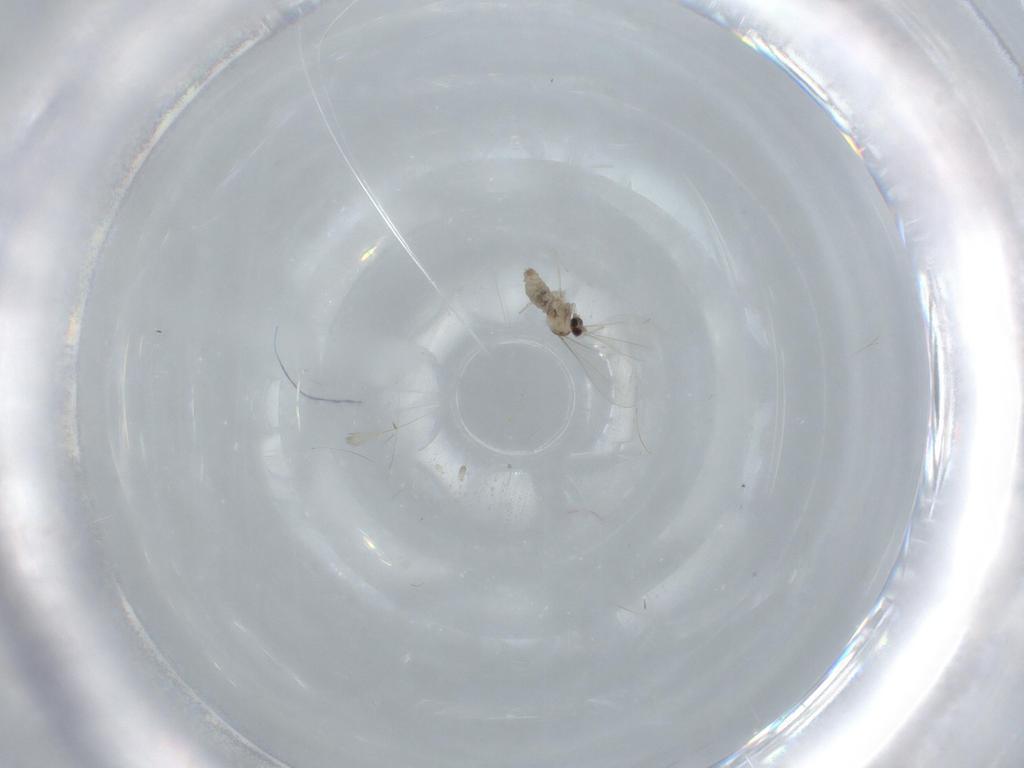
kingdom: Animalia
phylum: Arthropoda
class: Insecta
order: Diptera
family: Cecidomyiidae
